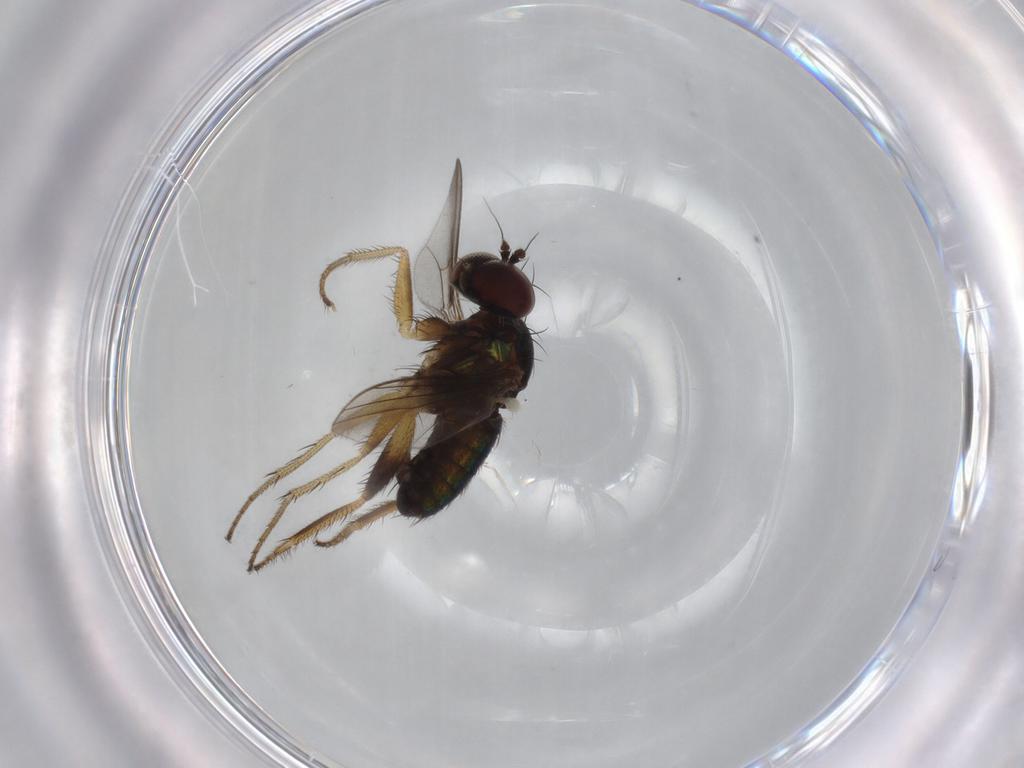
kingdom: Animalia
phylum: Arthropoda
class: Insecta
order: Diptera
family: Dolichopodidae
